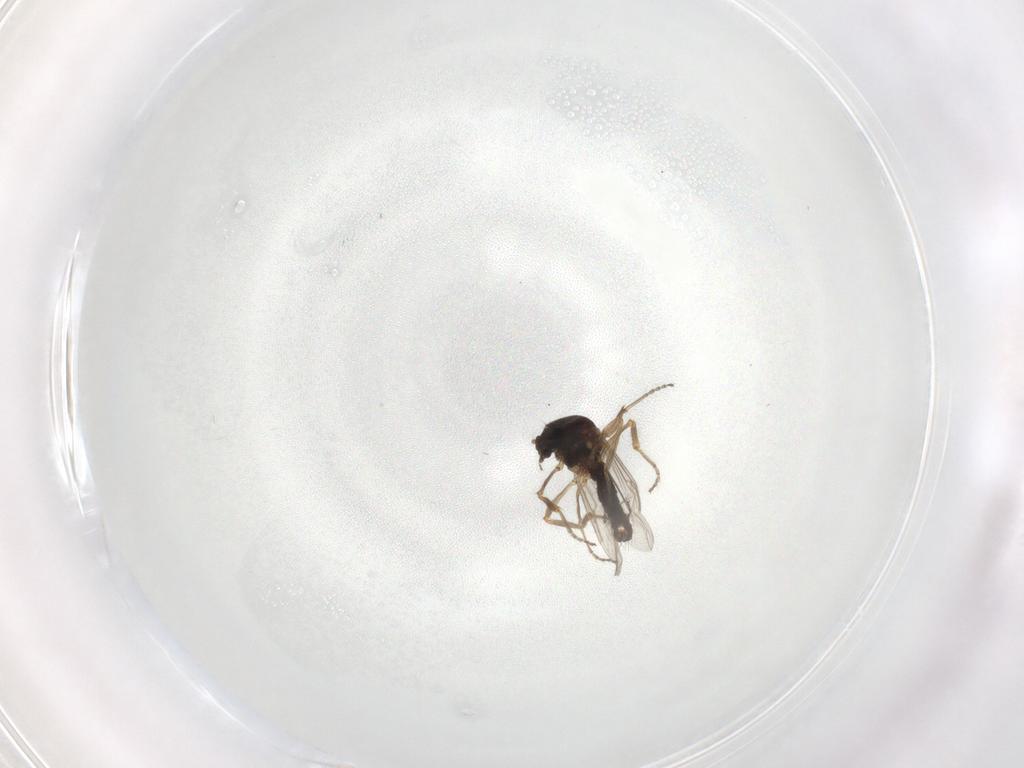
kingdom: Animalia
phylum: Arthropoda
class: Insecta
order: Diptera
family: Ceratopogonidae
